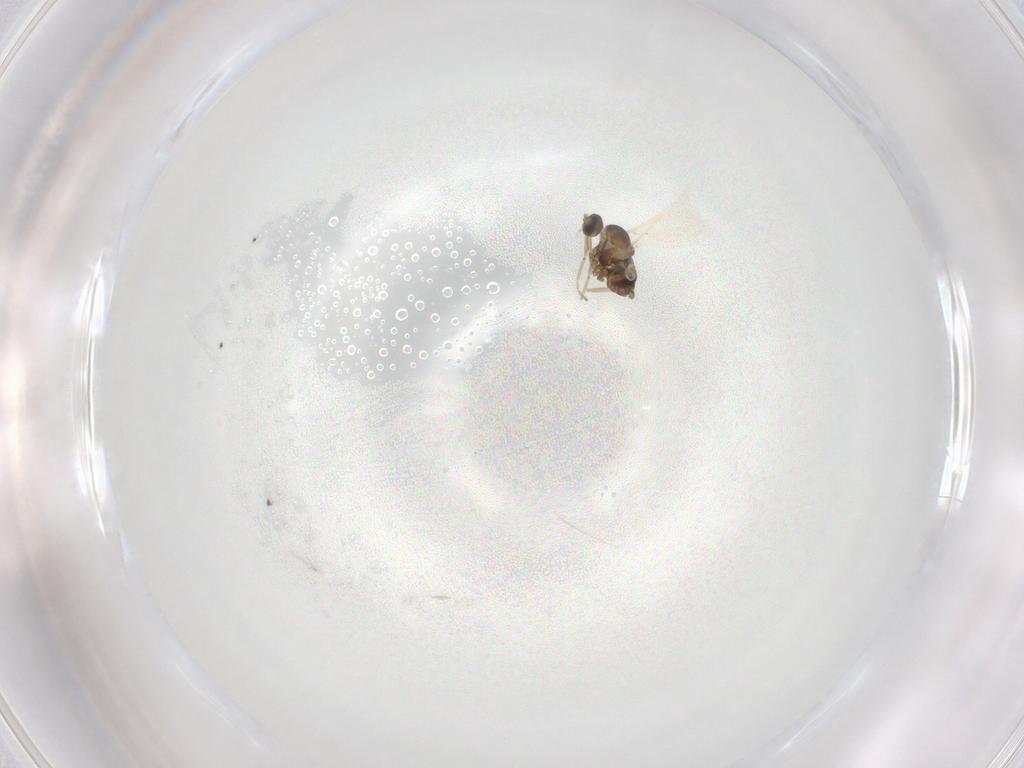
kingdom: Animalia
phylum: Arthropoda
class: Insecta
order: Diptera
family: Cecidomyiidae
